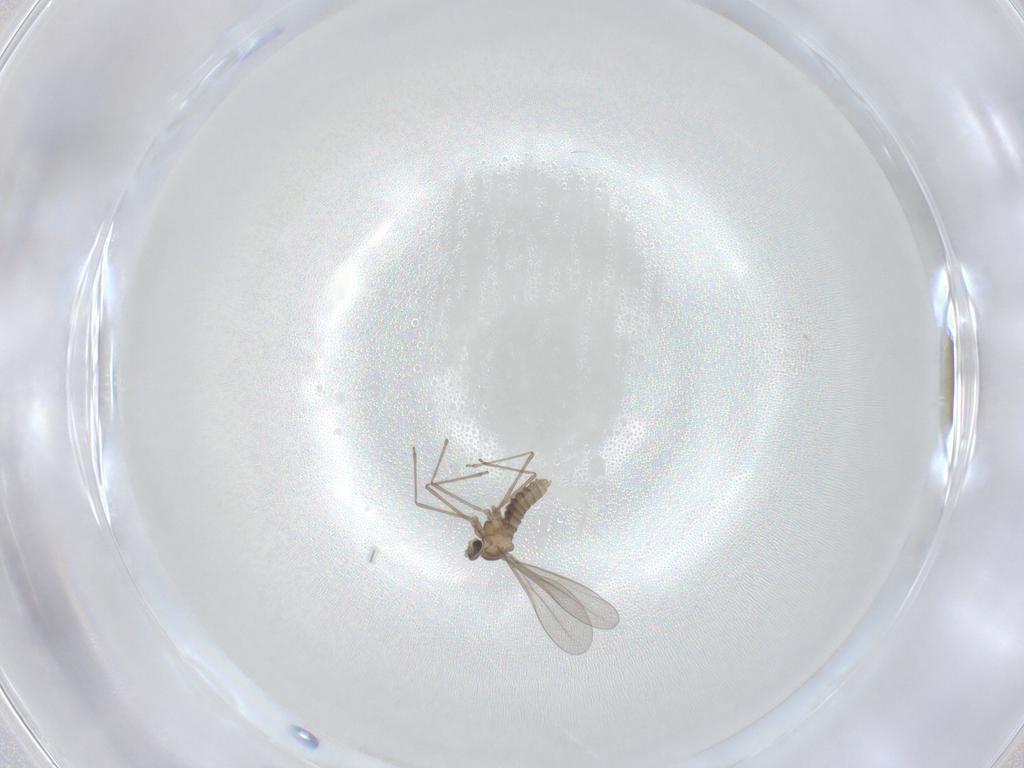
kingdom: Animalia
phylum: Arthropoda
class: Insecta
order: Diptera
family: Cecidomyiidae
